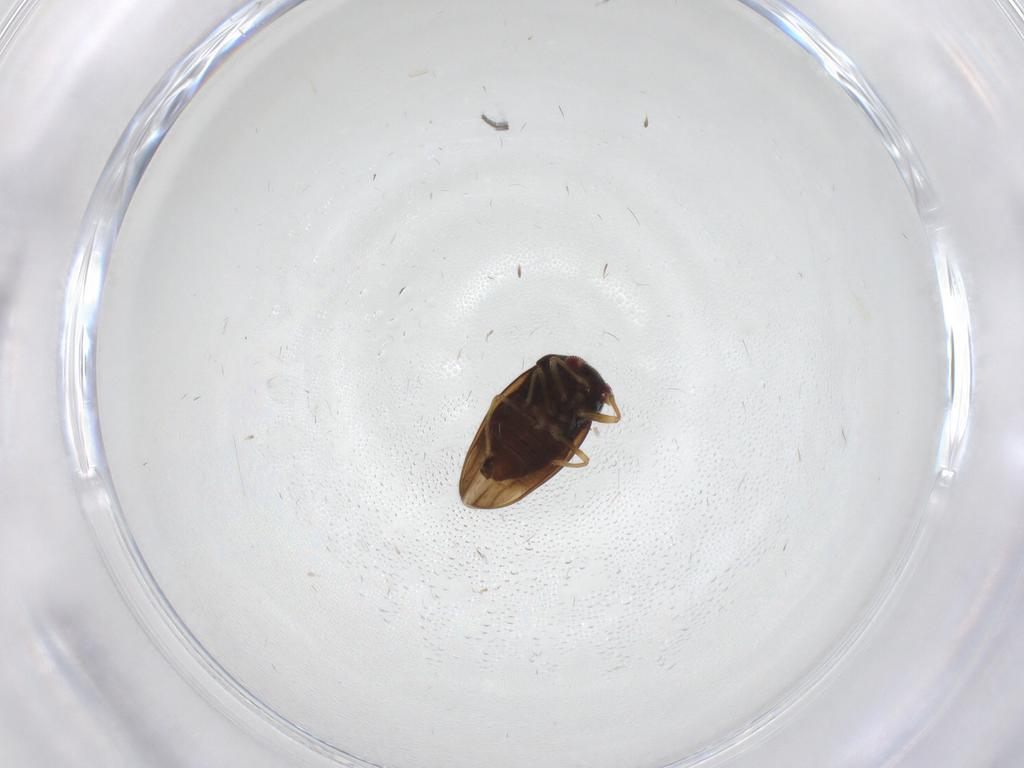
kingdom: Animalia
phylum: Arthropoda
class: Insecta
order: Hemiptera
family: Schizopteridae
